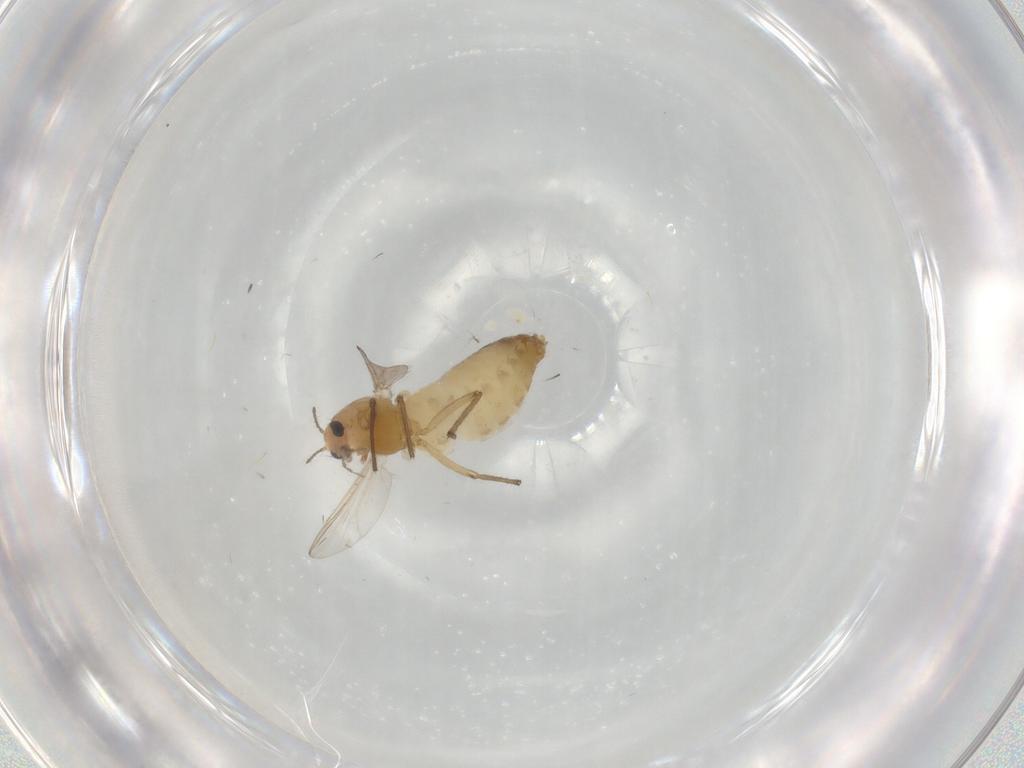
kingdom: Animalia
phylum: Arthropoda
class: Insecta
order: Diptera
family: Chironomidae
